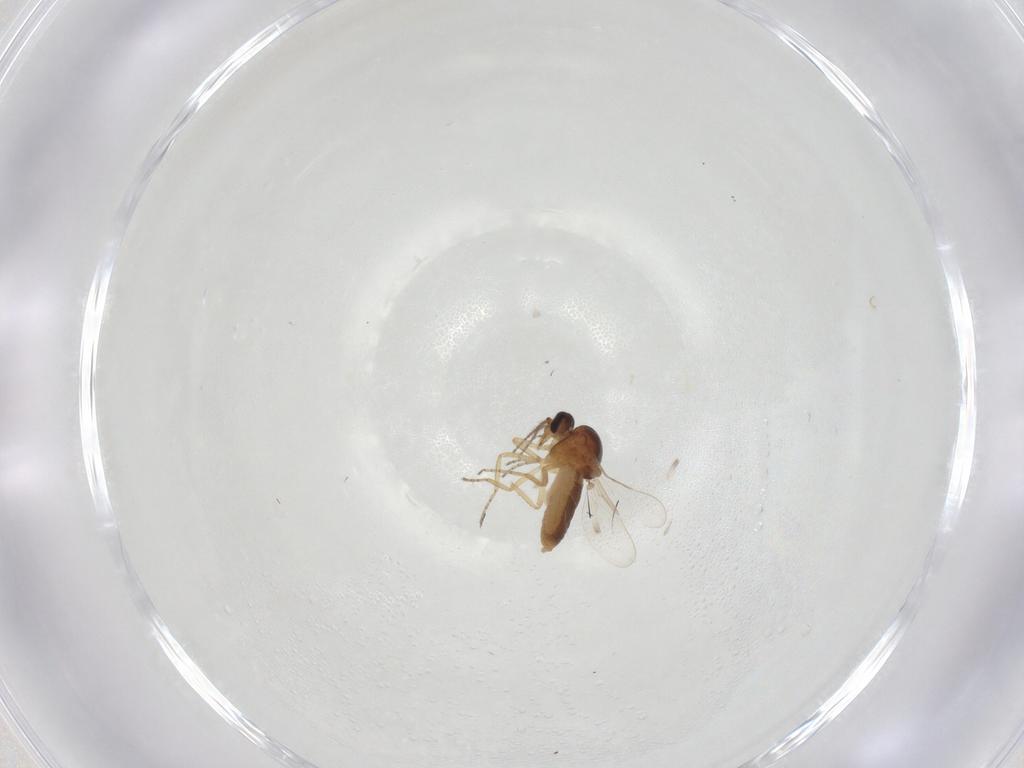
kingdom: Animalia
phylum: Arthropoda
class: Insecta
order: Diptera
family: Ceratopogonidae
